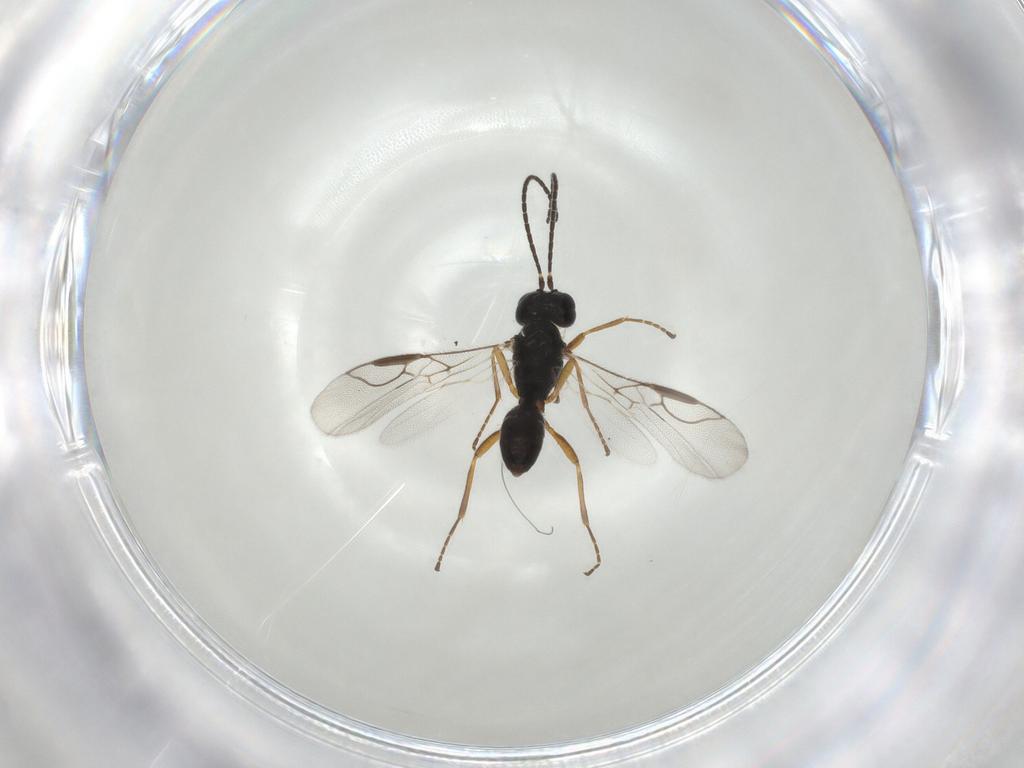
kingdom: Animalia
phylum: Arthropoda
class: Insecta
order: Hymenoptera
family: Braconidae
